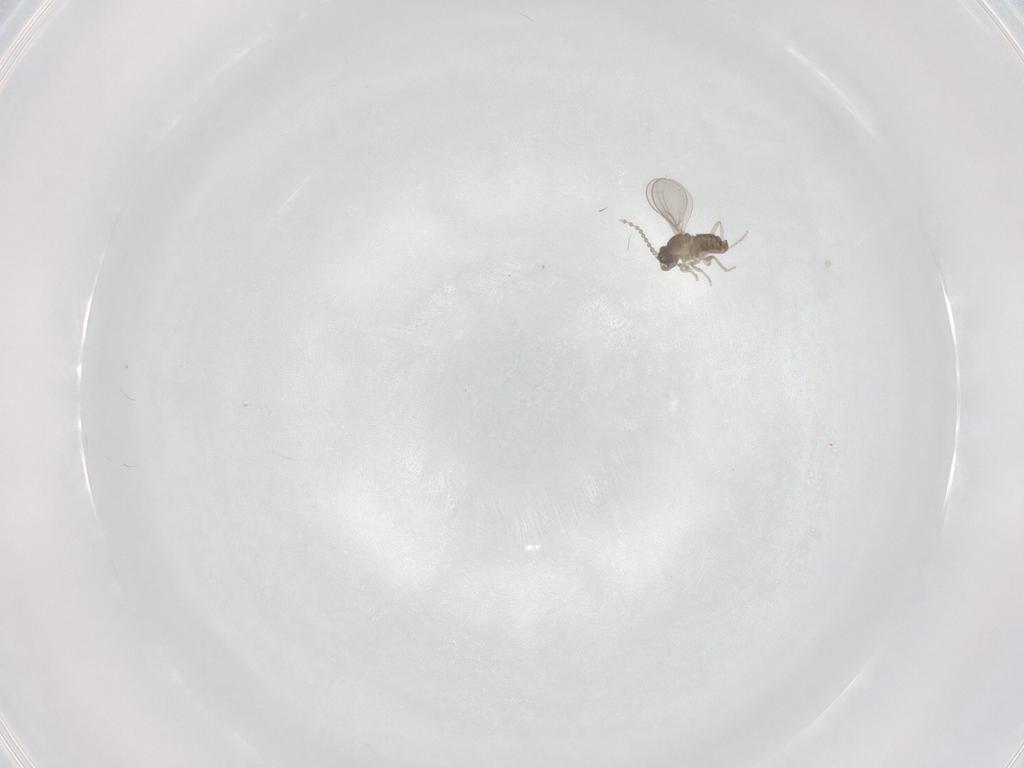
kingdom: Animalia
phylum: Arthropoda
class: Insecta
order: Diptera
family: Cecidomyiidae
